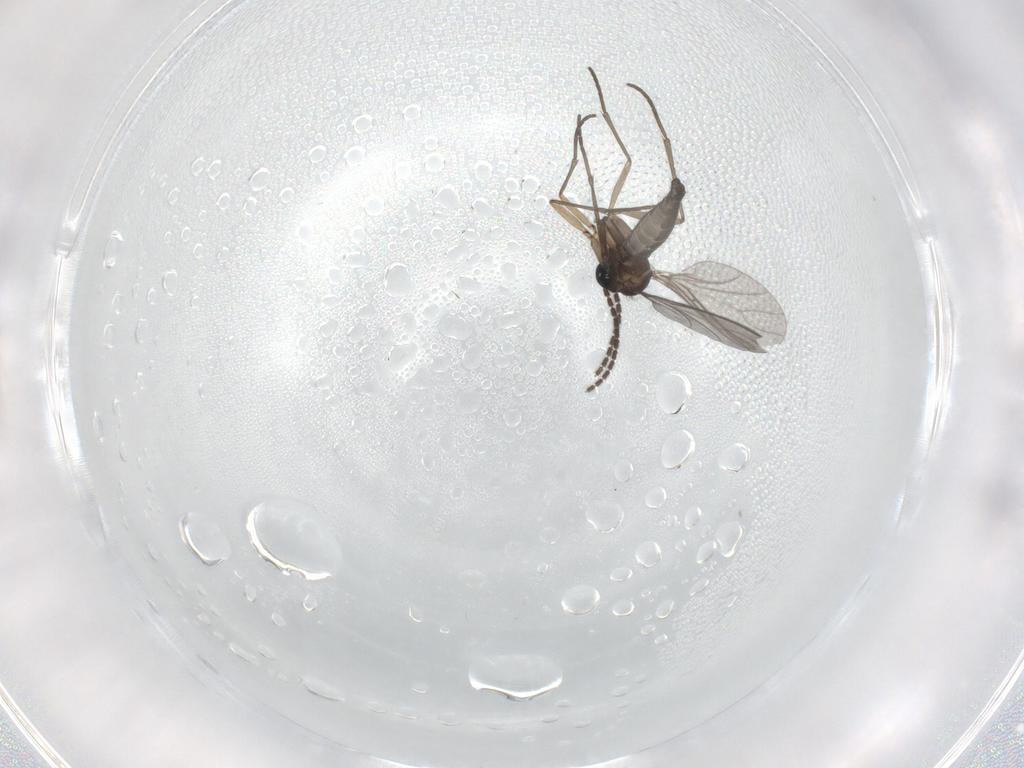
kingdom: Animalia
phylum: Arthropoda
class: Insecta
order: Diptera
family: Sciaridae
